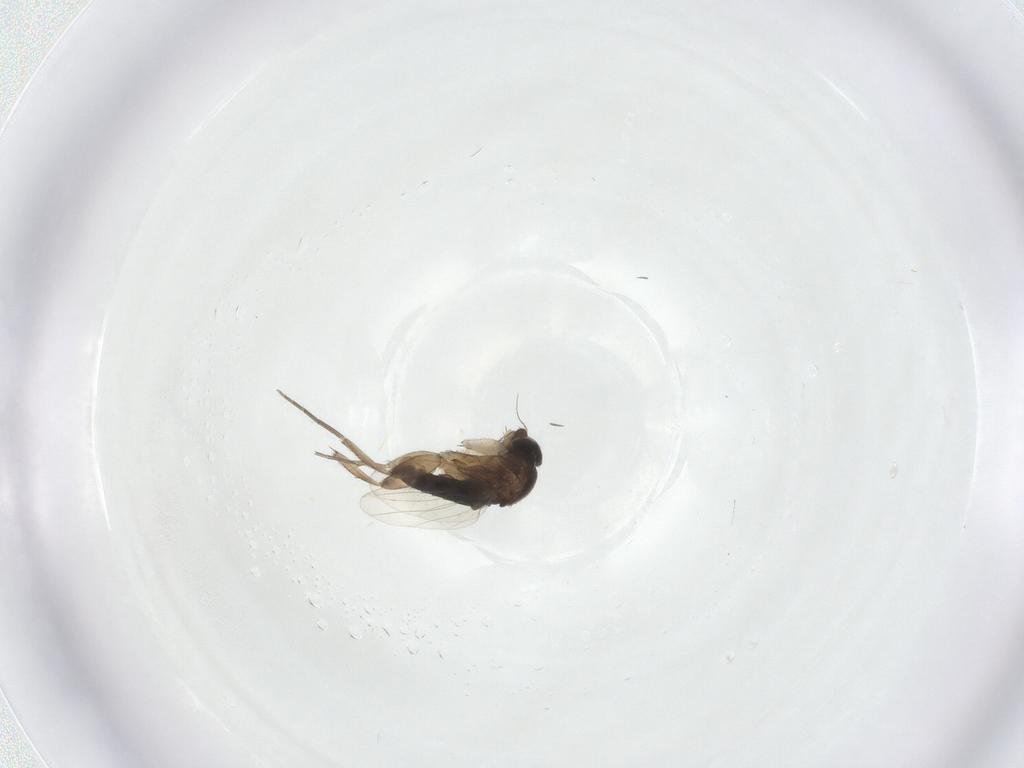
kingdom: Animalia
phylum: Arthropoda
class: Insecta
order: Diptera
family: Phoridae
